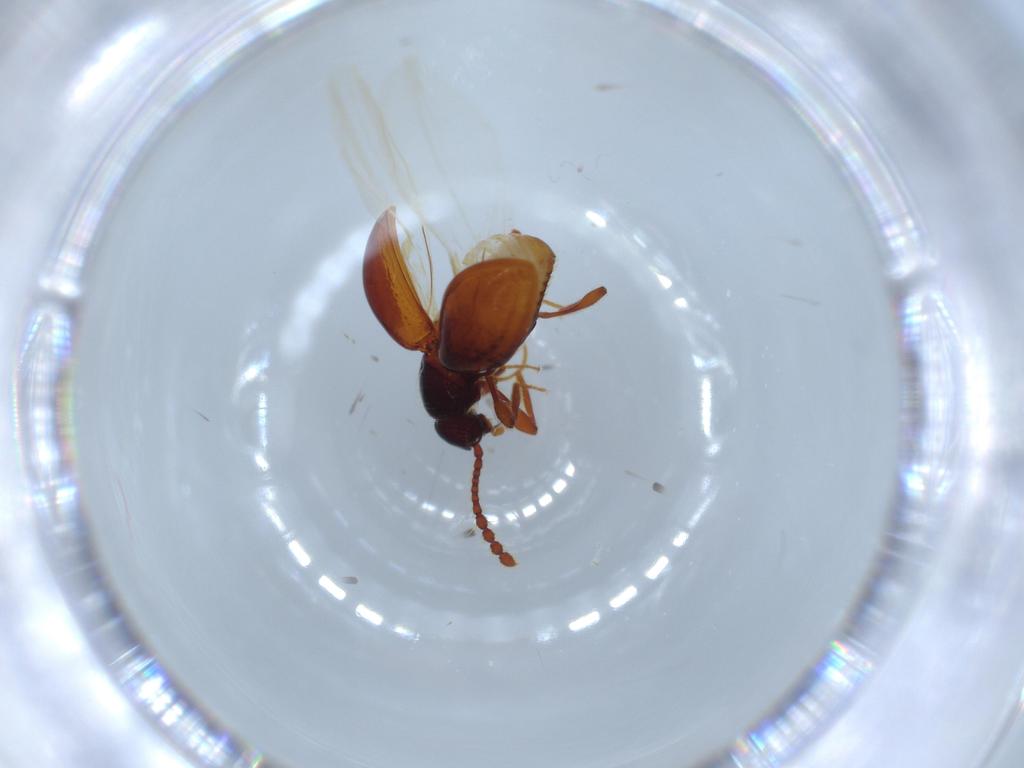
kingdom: Animalia
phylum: Arthropoda
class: Insecta
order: Coleoptera
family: Staphylinidae
